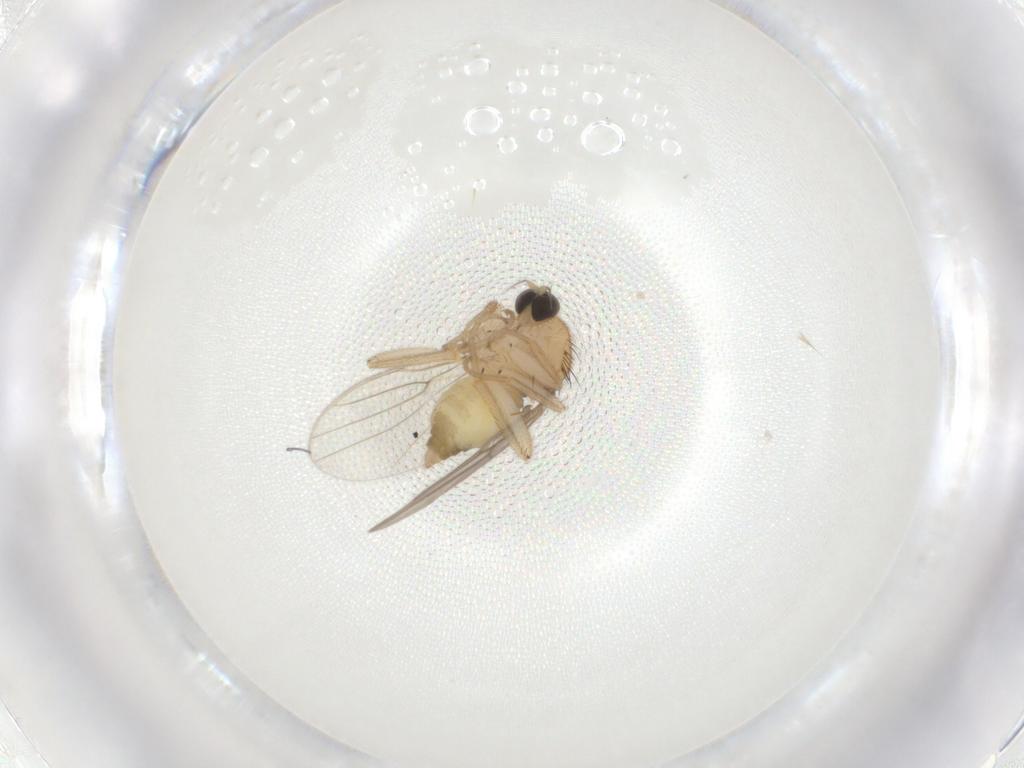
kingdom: Animalia
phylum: Arthropoda
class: Insecta
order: Diptera
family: Hybotidae
